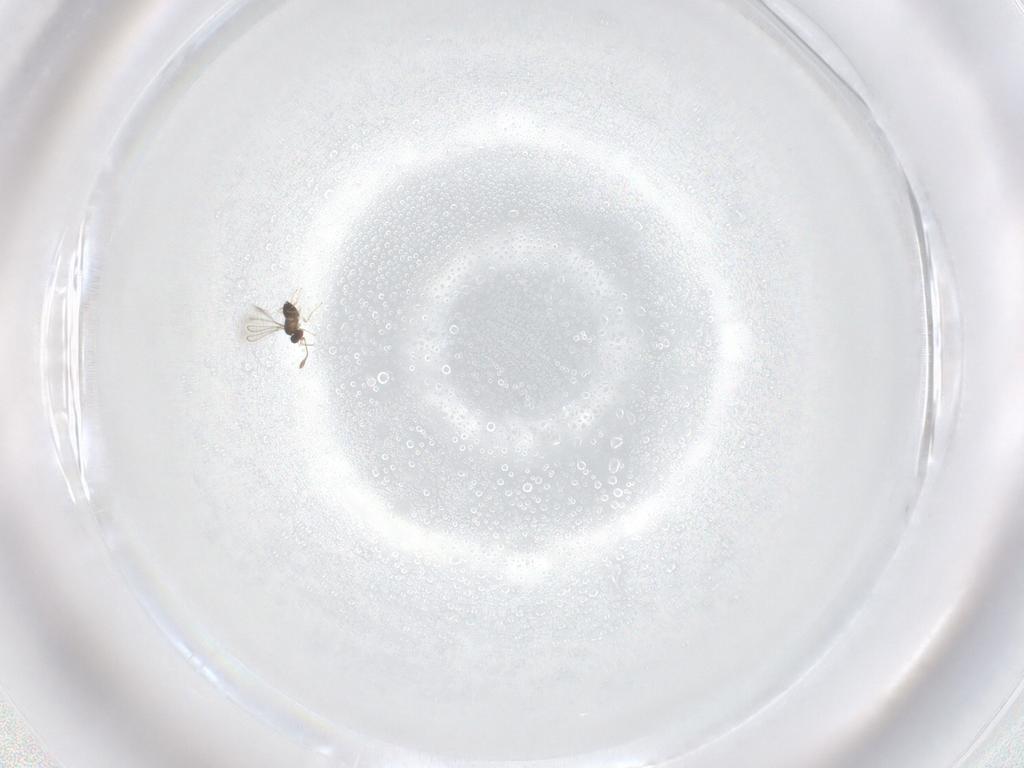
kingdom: Animalia
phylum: Arthropoda
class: Insecta
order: Hymenoptera
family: Mymaridae
